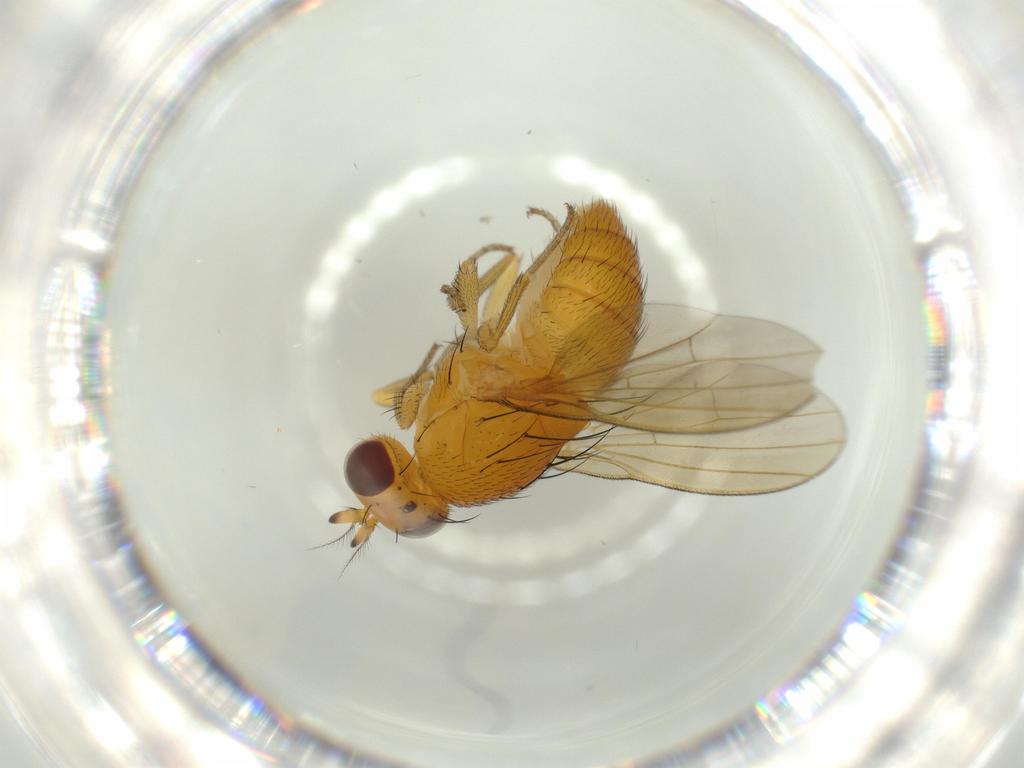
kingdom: Animalia
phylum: Arthropoda
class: Insecta
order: Diptera
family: Lauxaniidae
